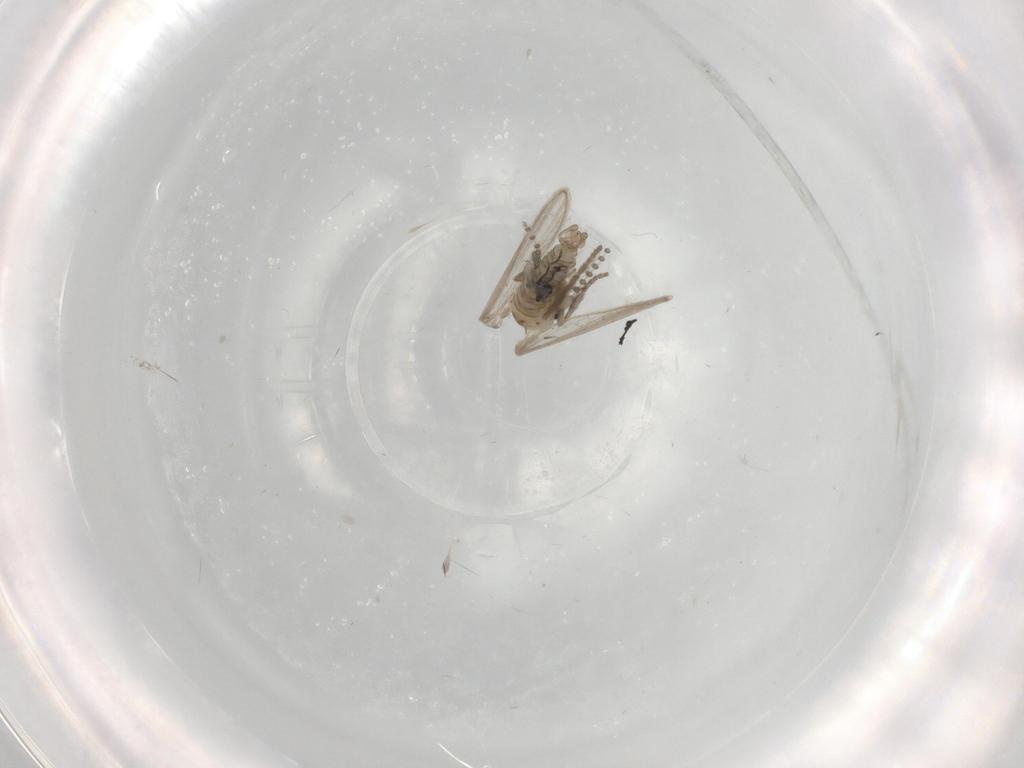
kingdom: Animalia
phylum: Arthropoda
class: Insecta
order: Diptera
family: Psychodidae
